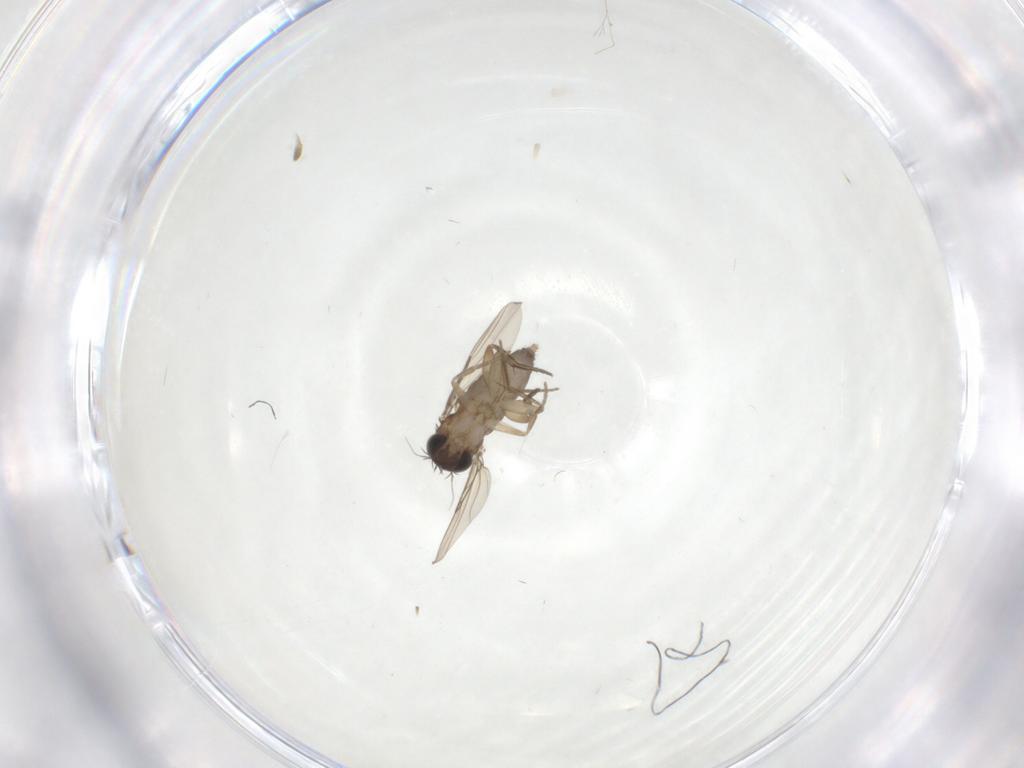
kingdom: Animalia
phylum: Arthropoda
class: Insecta
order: Diptera
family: Phoridae
